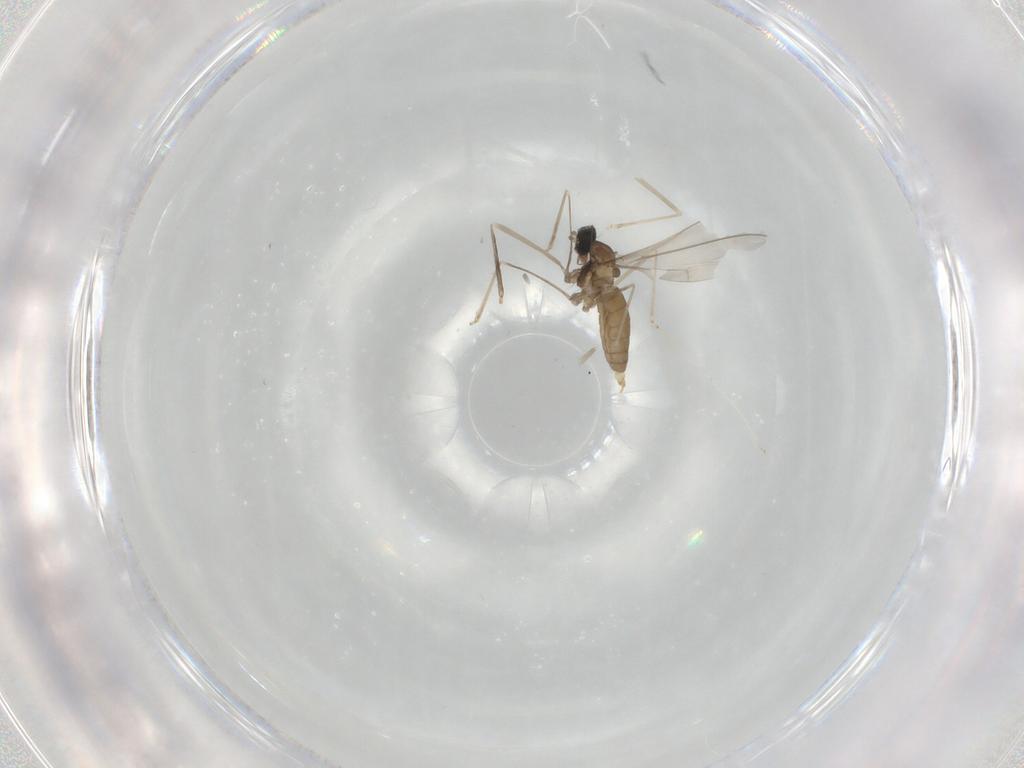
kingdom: Animalia
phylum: Arthropoda
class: Insecta
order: Diptera
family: Cecidomyiidae
